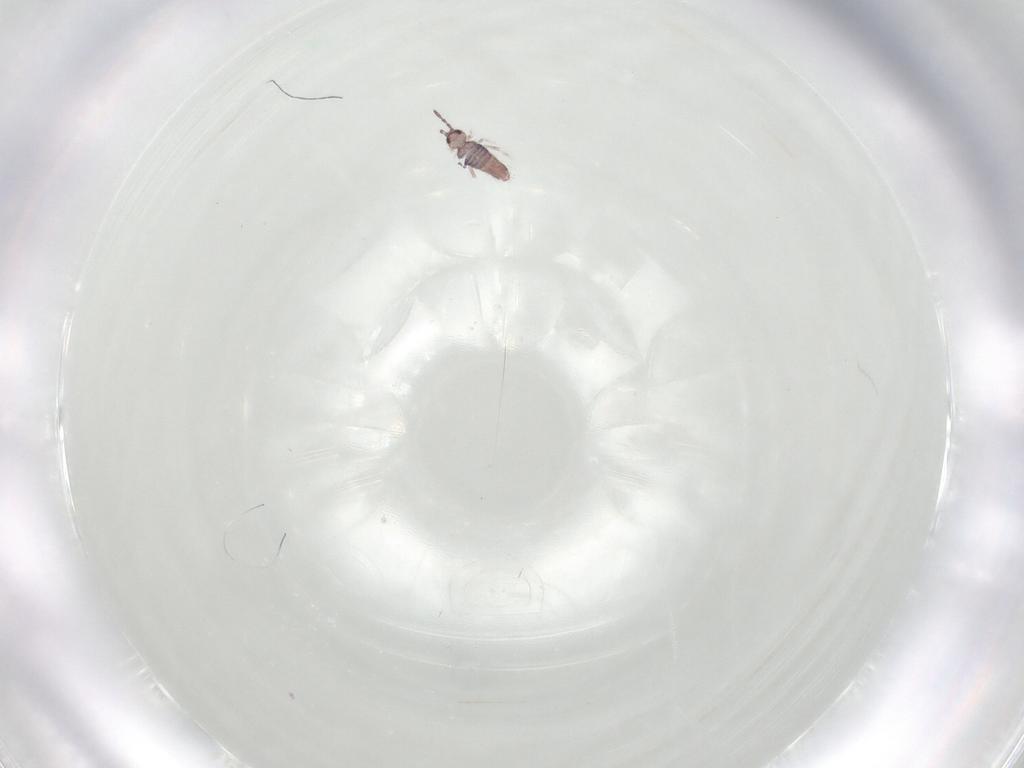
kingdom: Animalia
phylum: Arthropoda
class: Collembola
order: Entomobryomorpha
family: Entomobryidae
